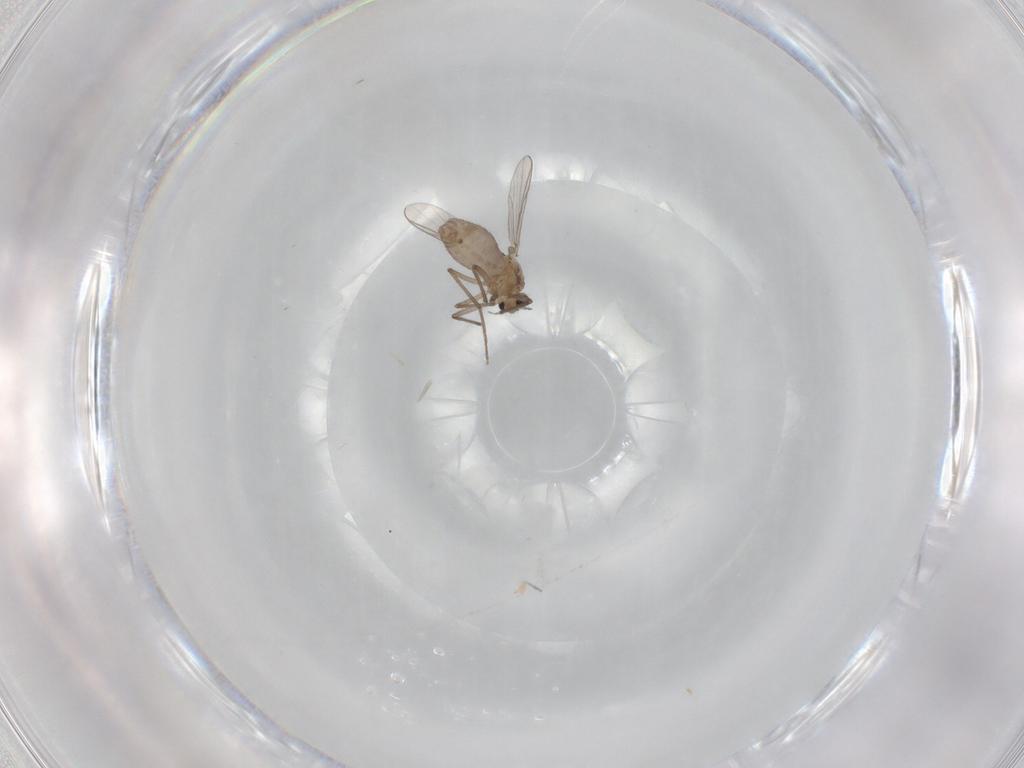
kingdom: Animalia
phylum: Arthropoda
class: Insecta
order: Diptera
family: Chironomidae
